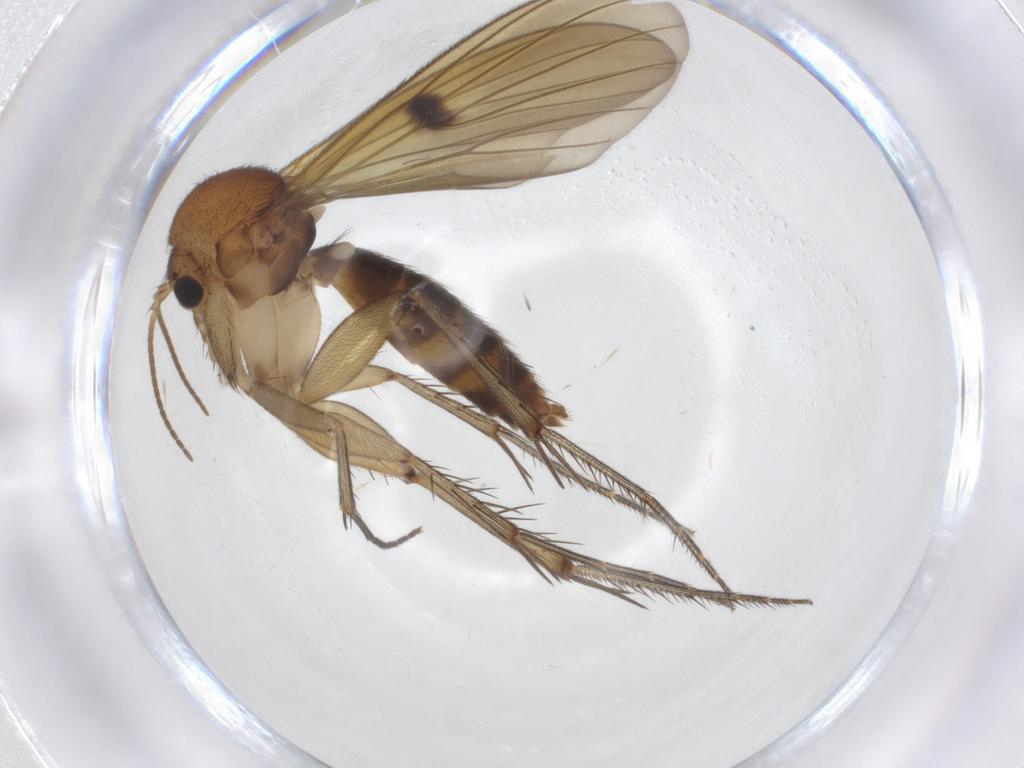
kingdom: Animalia
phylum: Arthropoda
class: Insecta
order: Diptera
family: Mycetophilidae
